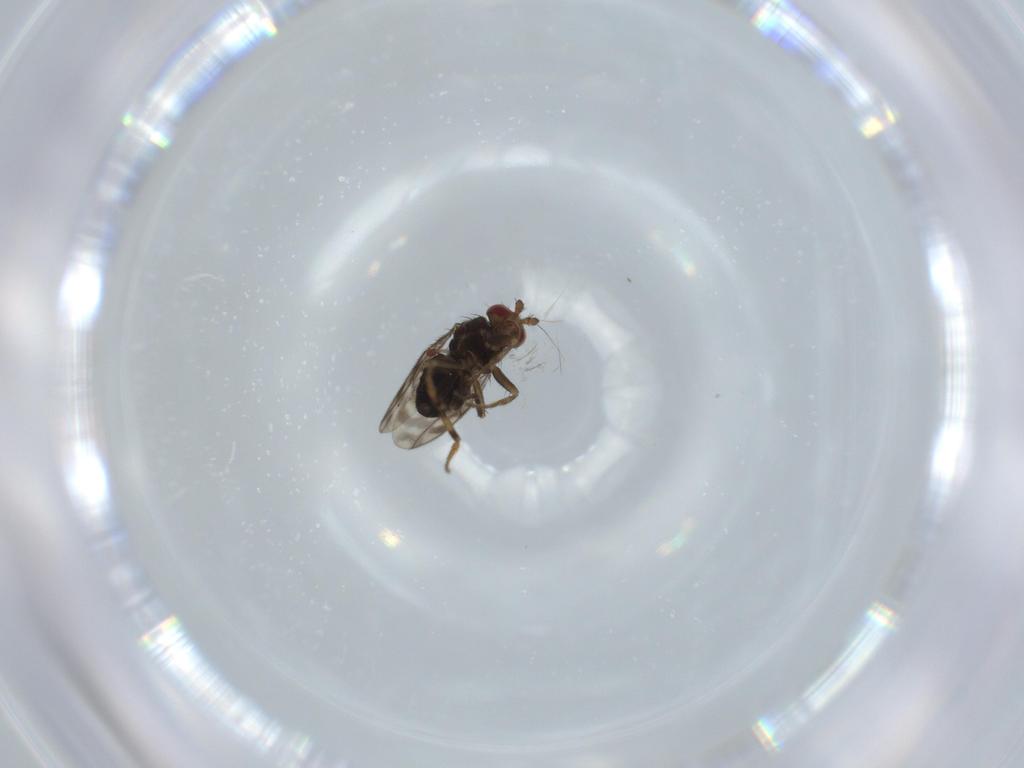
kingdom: Animalia
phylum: Arthropoda
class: Insecta
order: Diptera
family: Sphaeroceridae
